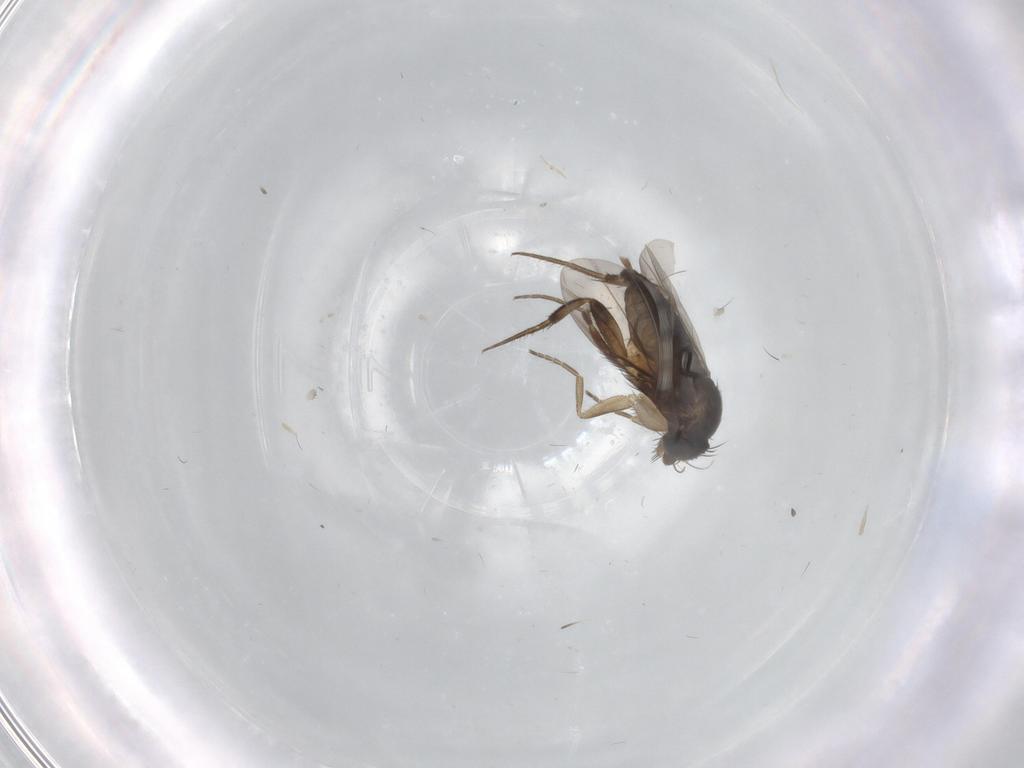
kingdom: Animalia
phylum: Arthropoda
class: Insecta
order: Diptera
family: Phoridae
